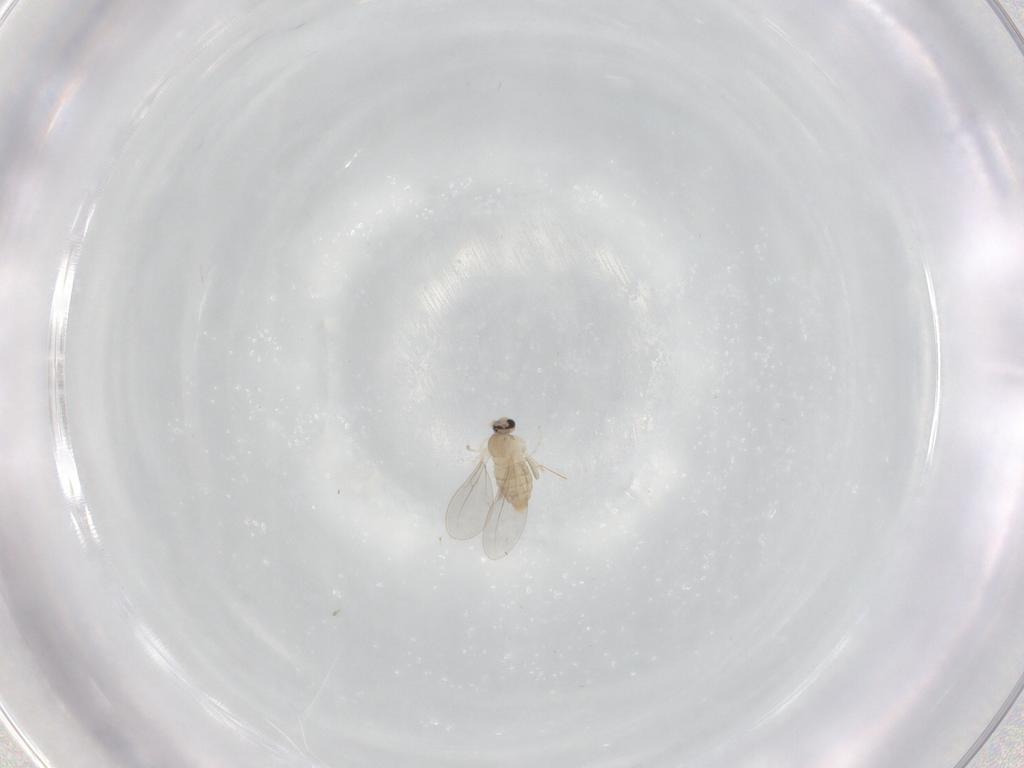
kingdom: Animalia
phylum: Arthropoda
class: Insecta
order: Diptera
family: Cecidomyiidae
